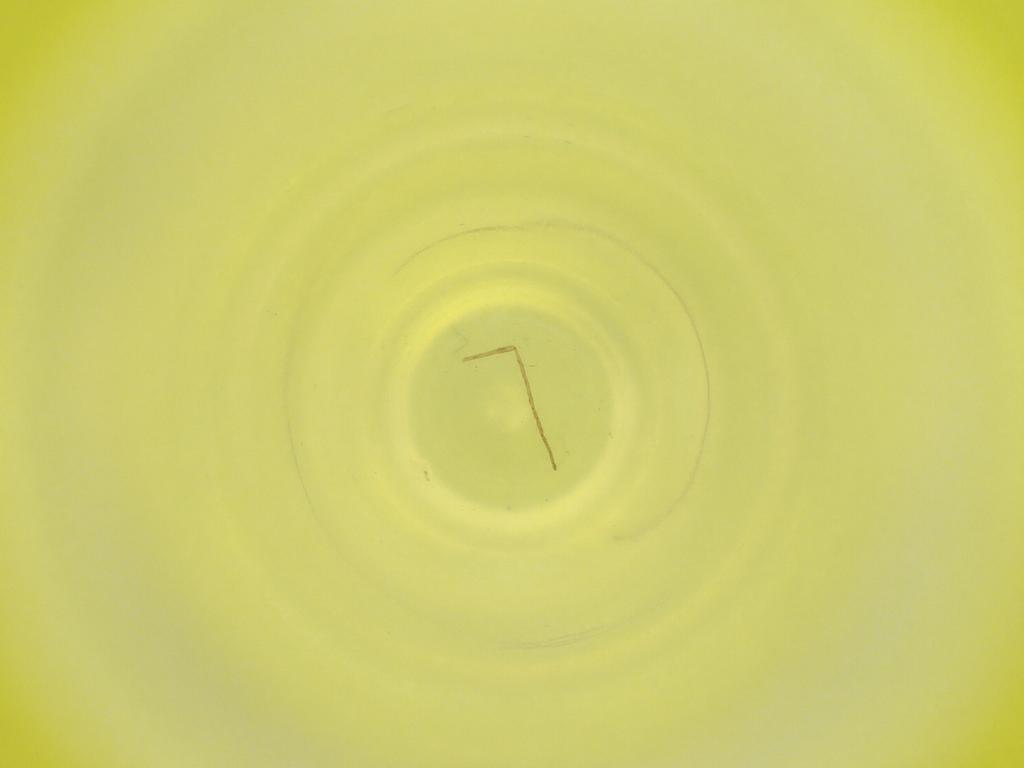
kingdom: Animalia
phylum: Arthropoda
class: Insecta
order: Diptera
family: Cecidomyiidae
